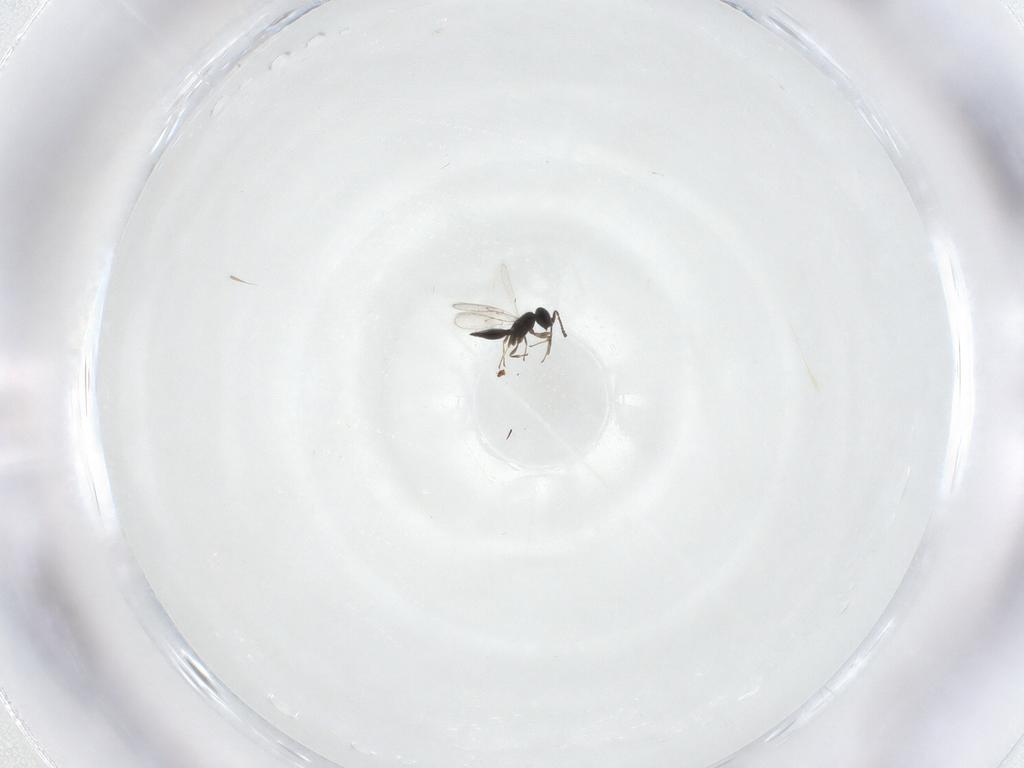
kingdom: Animalia
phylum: Arthropoda
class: Insecta
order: Hymenoptera
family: Scelionidae
